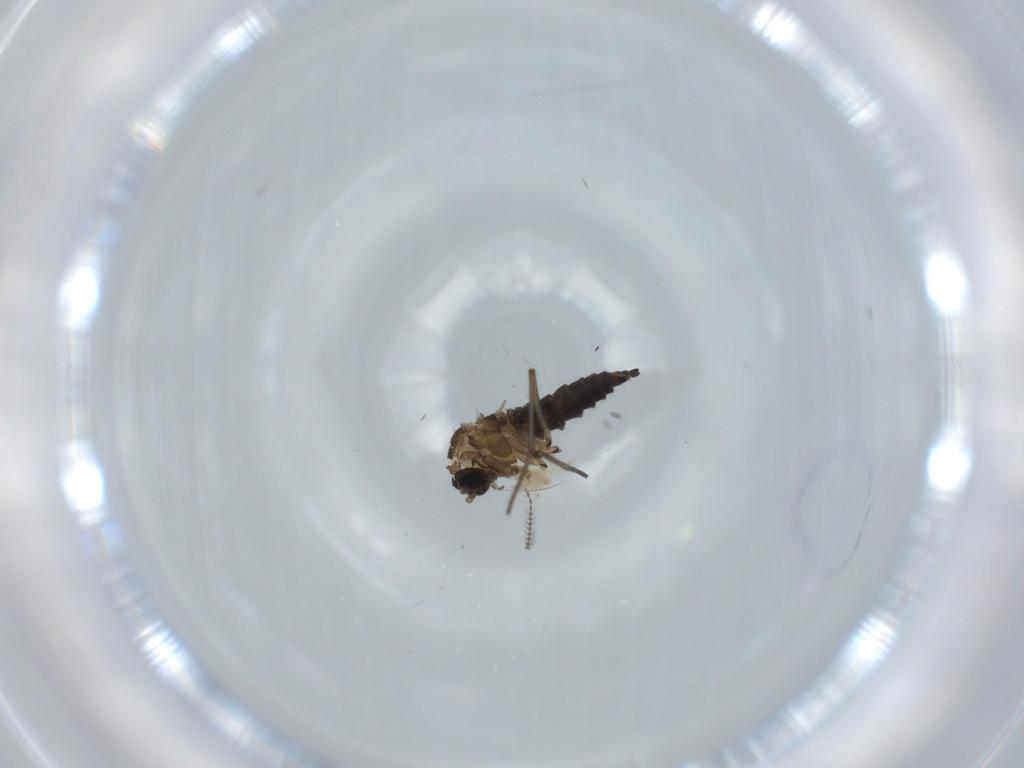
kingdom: Animalia
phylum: Arthropoda
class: Insecta
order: Diptera
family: Sciaridae
